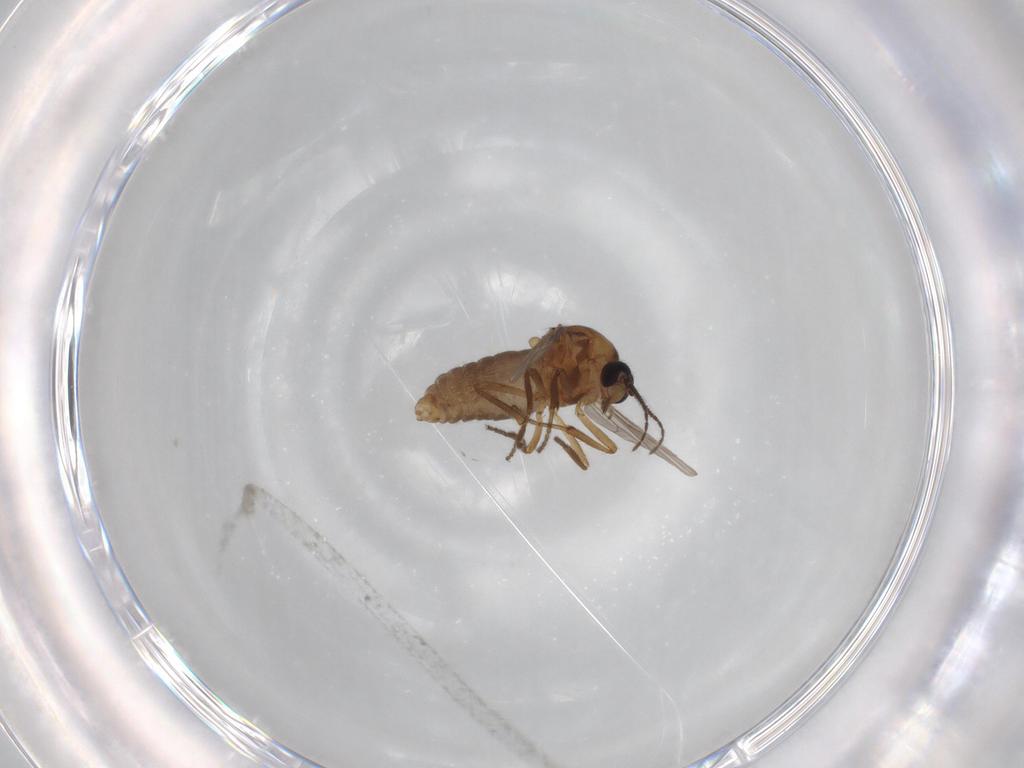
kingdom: Animalia
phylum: Arthropoda
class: Insecta
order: Diptera
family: Ceratopogonidae
